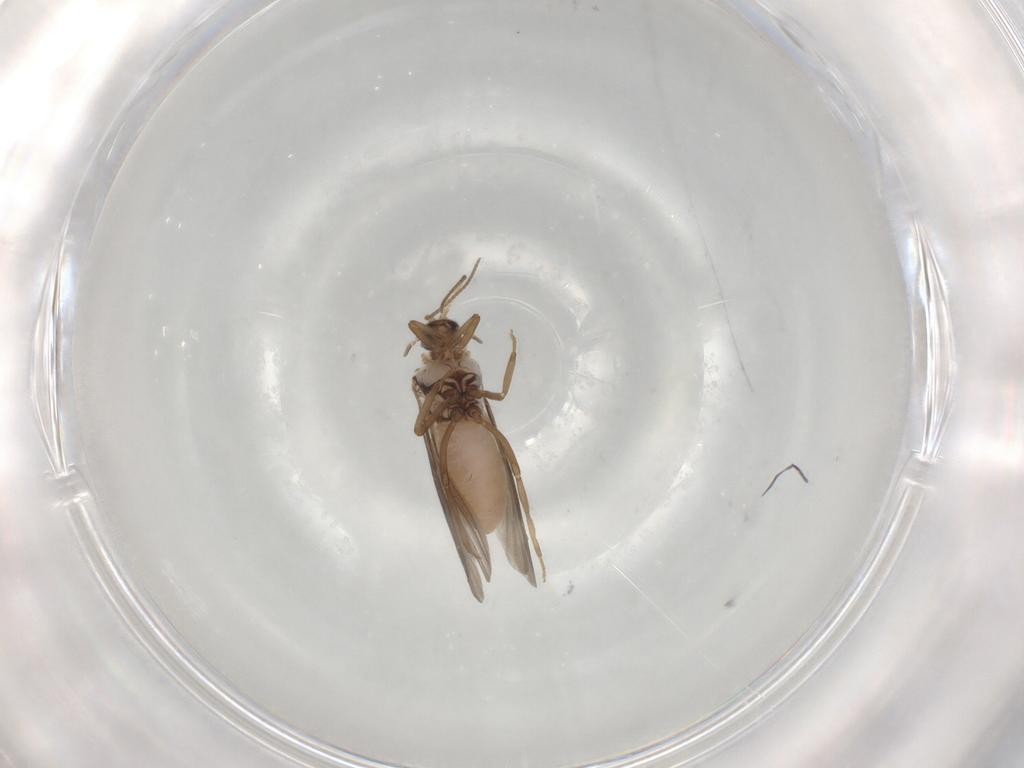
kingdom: Animalia
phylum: Arthropoda
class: Insecta
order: Neuroptera
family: Coniopterygidae
